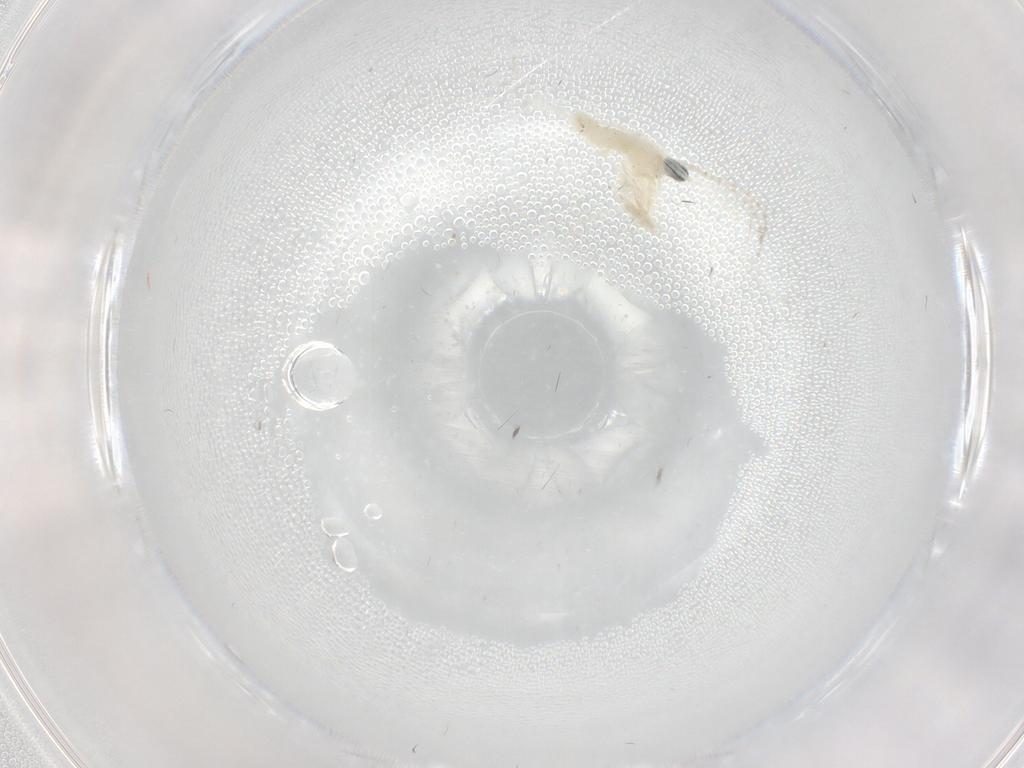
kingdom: Animalia
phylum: Arthropoda
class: Insecta
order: Diptera
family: Cecidomyiidae
